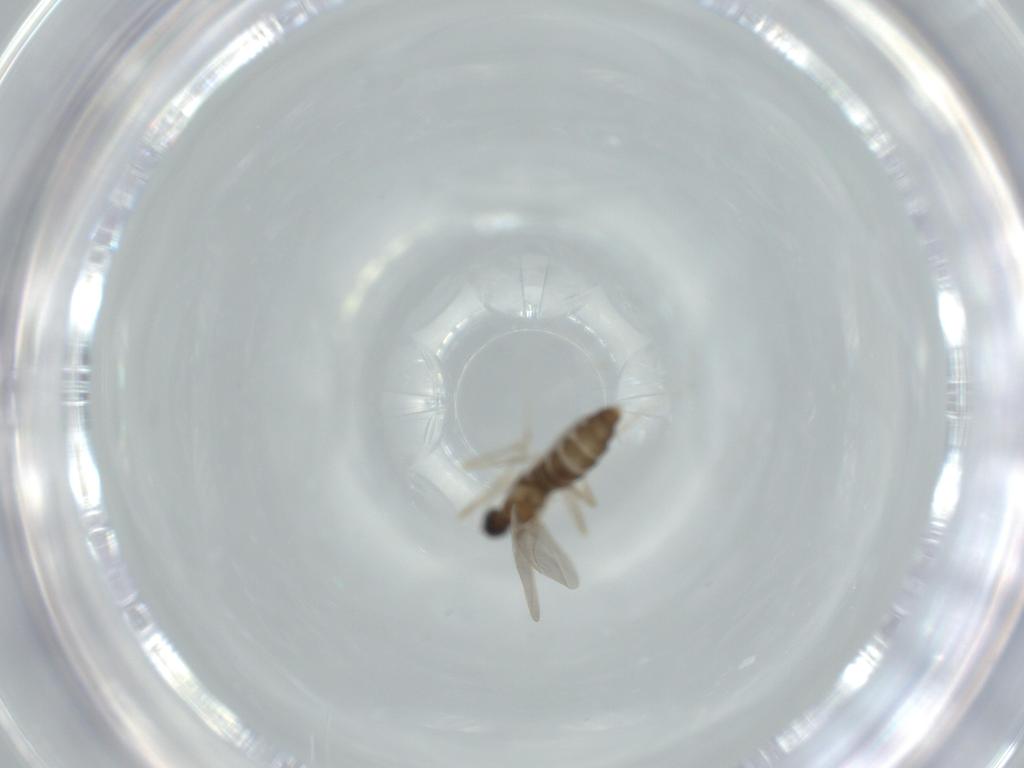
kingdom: Animalia
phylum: Arthropoda
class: Insecta
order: Diptera
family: Cecidomyiidae
